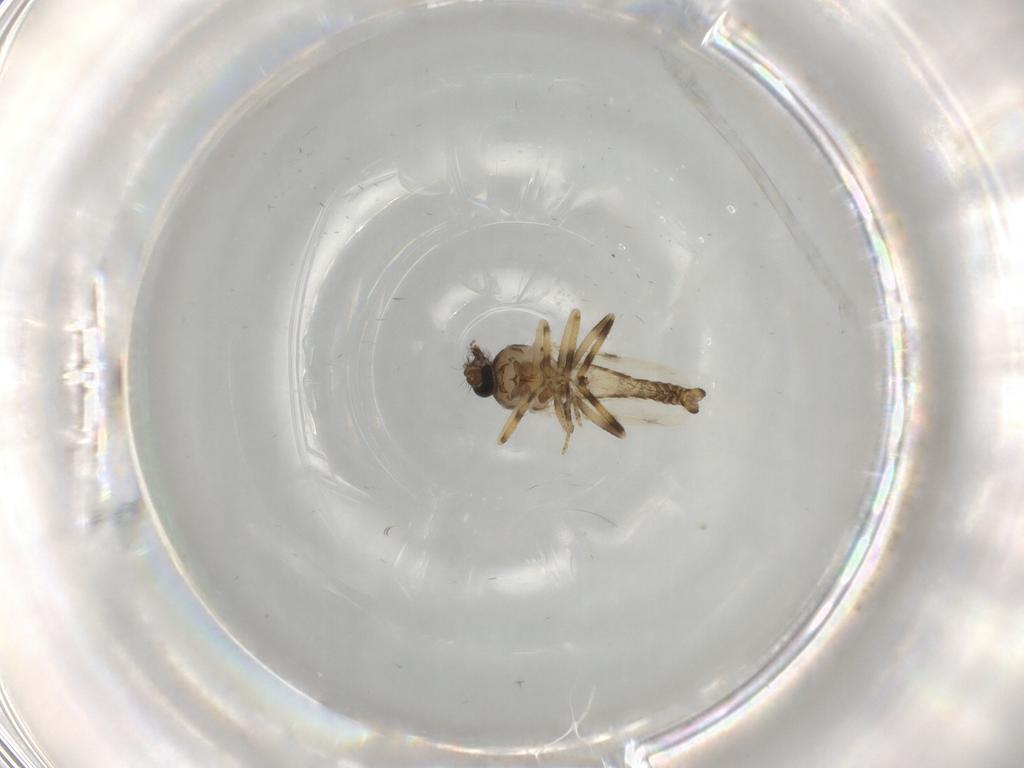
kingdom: Animalia
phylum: Arthropoda
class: Insecta
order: Diptera
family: Ceratopogonidae
